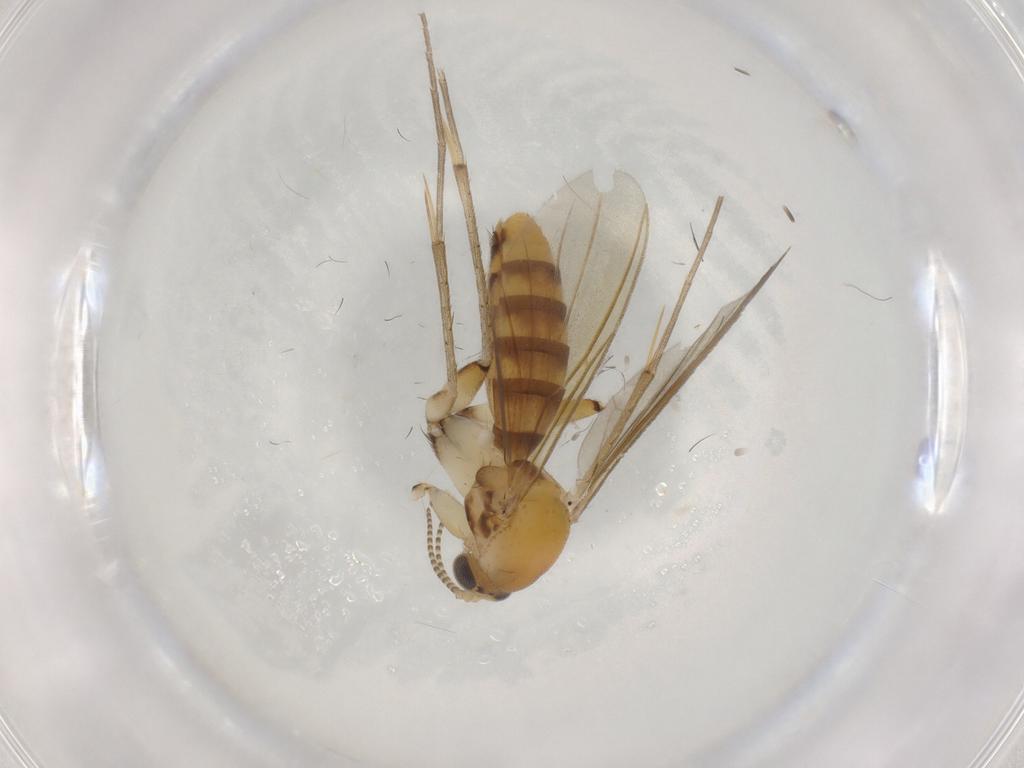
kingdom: Animalia
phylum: Arthropoda
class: Insecta
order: Diptera
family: Mycetophilidae
